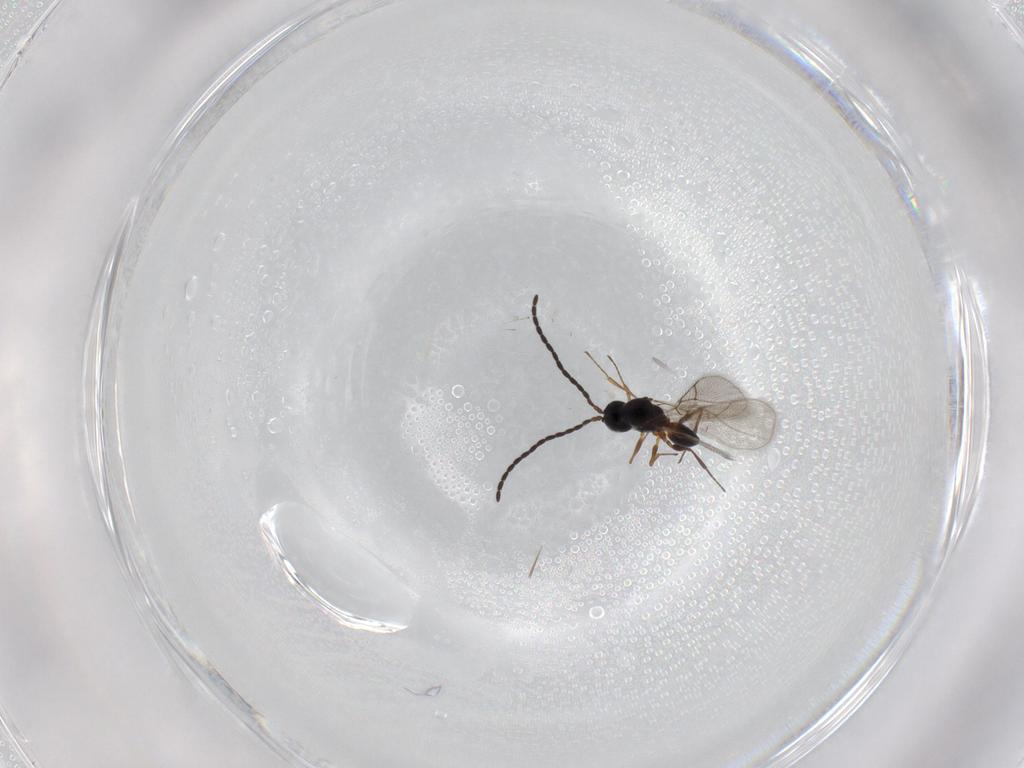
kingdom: Animalia
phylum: Arthropoda
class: Insecta
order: Hymenoptera
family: Figitidae
